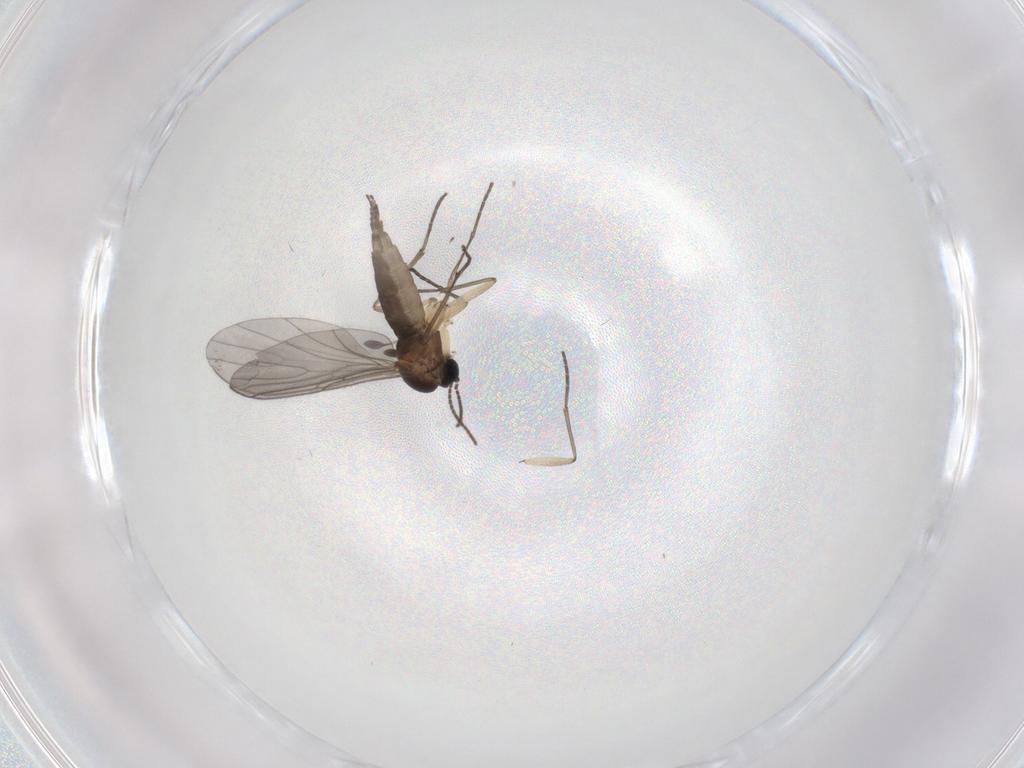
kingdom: Animalia
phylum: Arthropoda
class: Insecta
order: Diptera
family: Sciaridae
